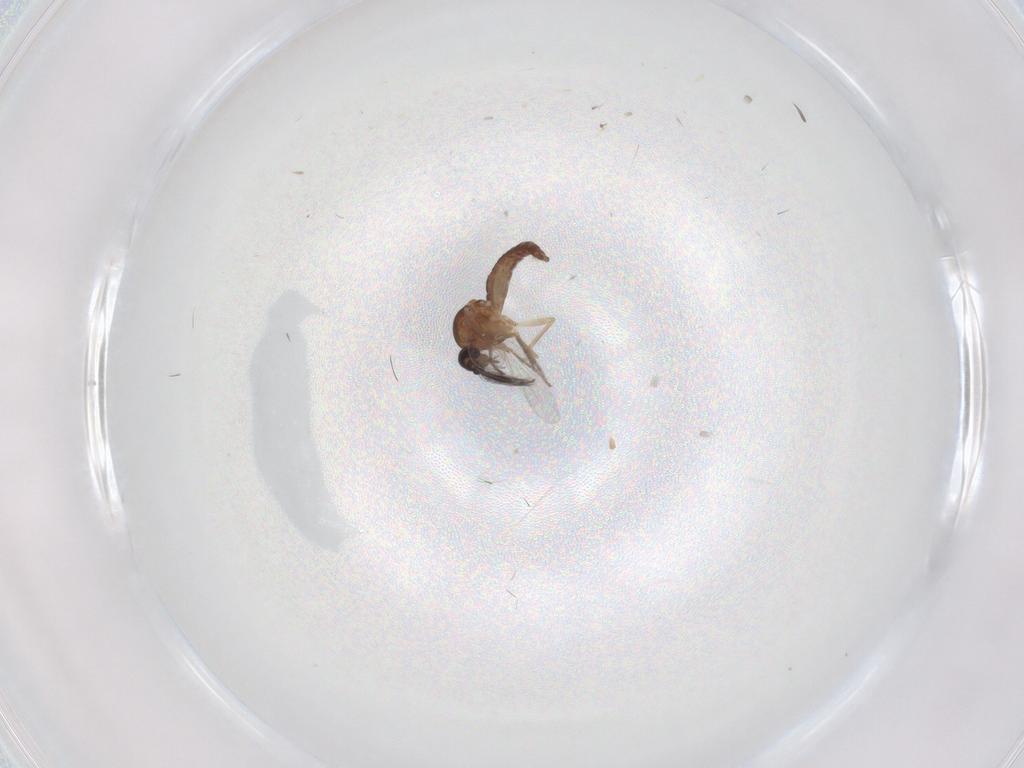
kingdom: Animalia
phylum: Arthropoda
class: Insecta
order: Diptera
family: Ceratopogonidae
